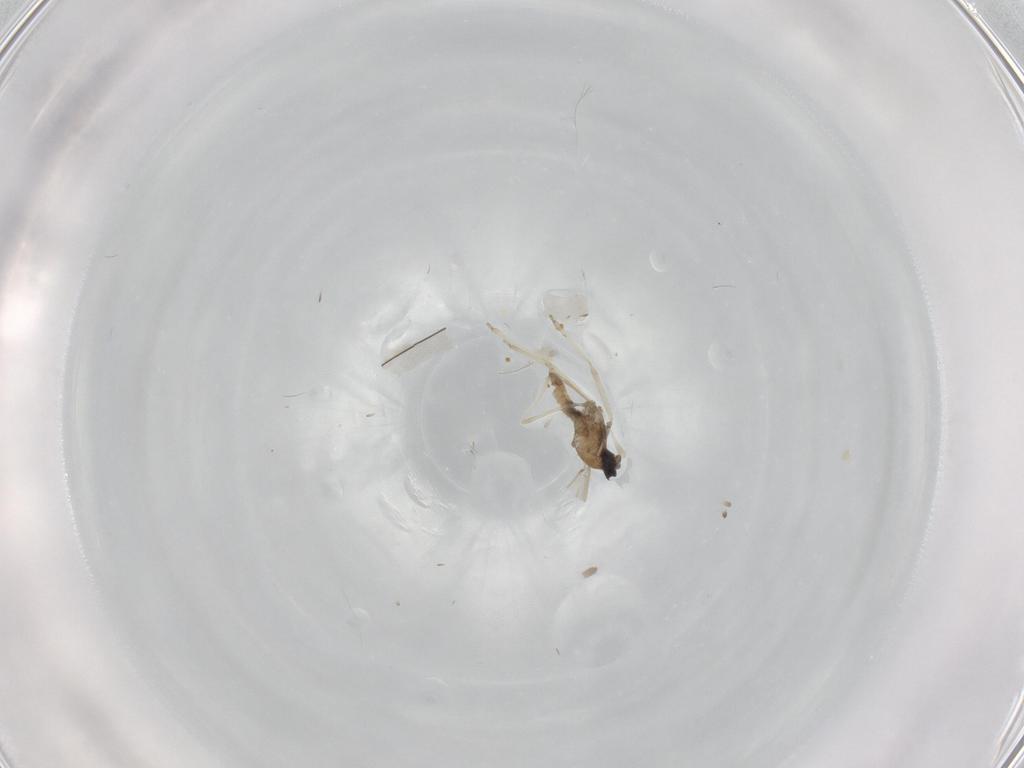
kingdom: Animalia
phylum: Arthropoda
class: Insecta
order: Diptera
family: Cecidomyiidae
